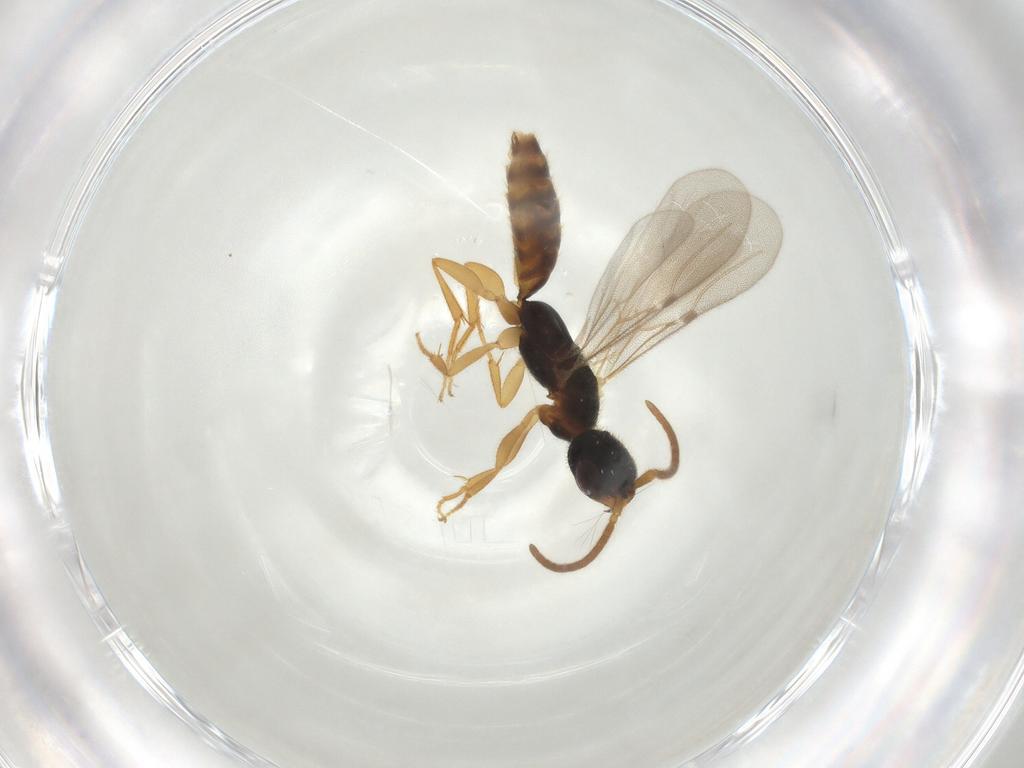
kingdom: Animalia
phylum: Arthropoda
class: Insecta
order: Hymenoptera
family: Bethylidae
